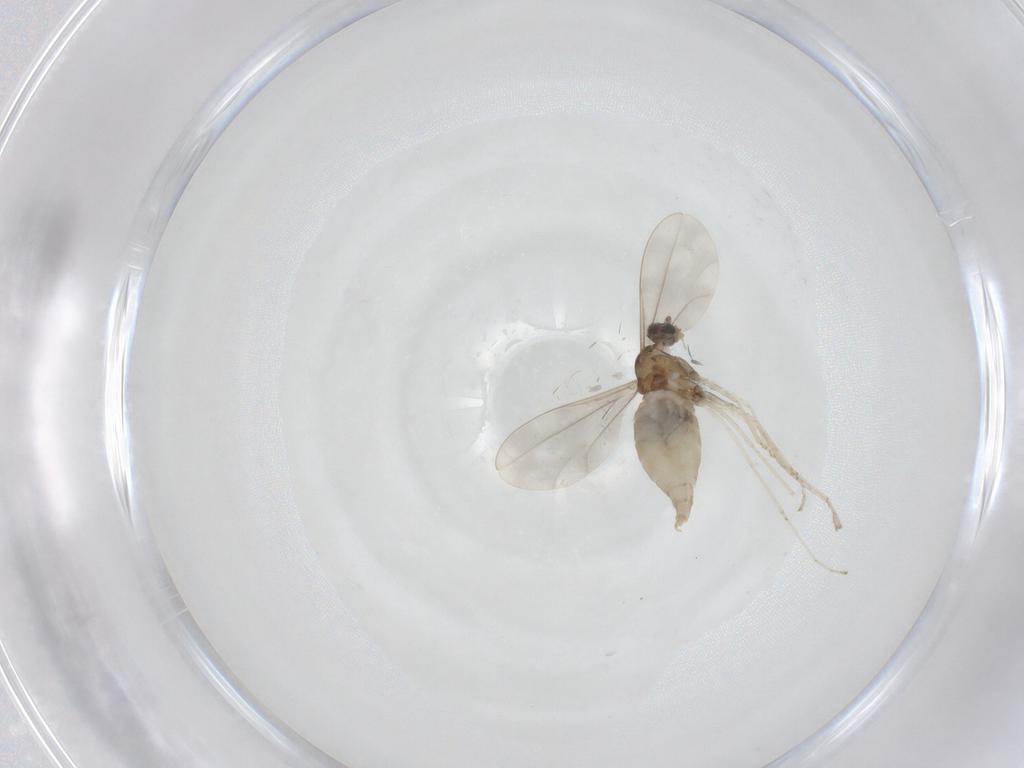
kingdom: Animalia
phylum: Arthropoda
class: Insecta
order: Diptera
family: Cecidomyiidae
